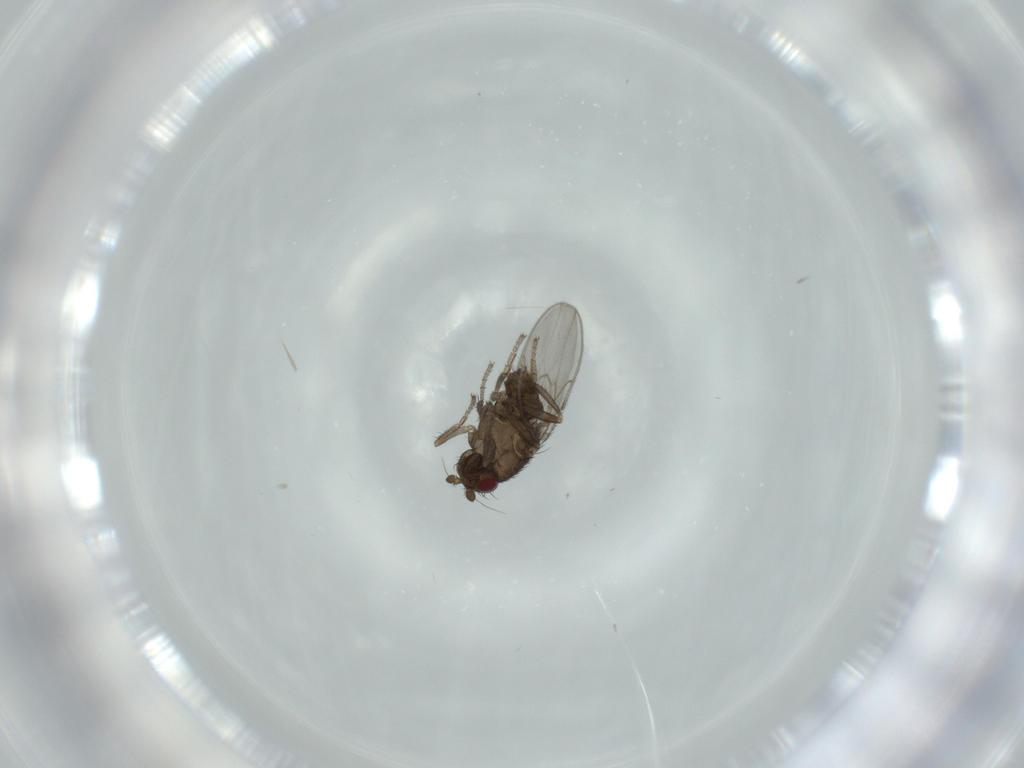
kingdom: Animalia
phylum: Arthropoda
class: Insecta
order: Diptera
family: Sphaeroceridae
